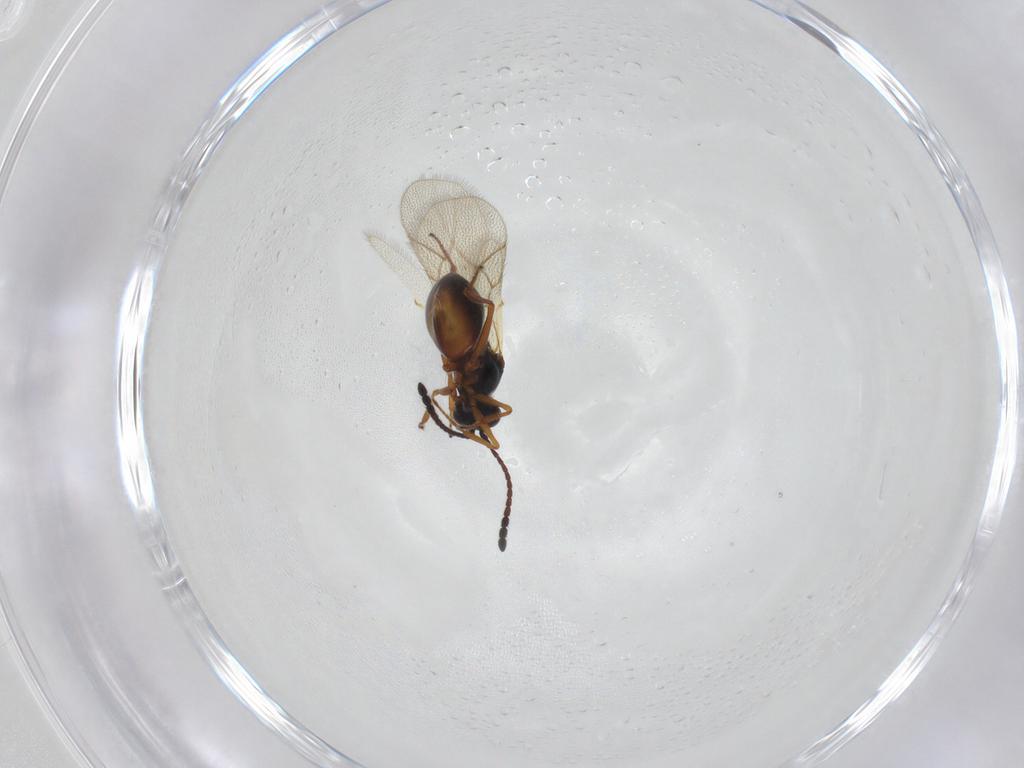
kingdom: Animalia
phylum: Arthropoda
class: Insecta
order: Hymenoptera
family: Figitidae
